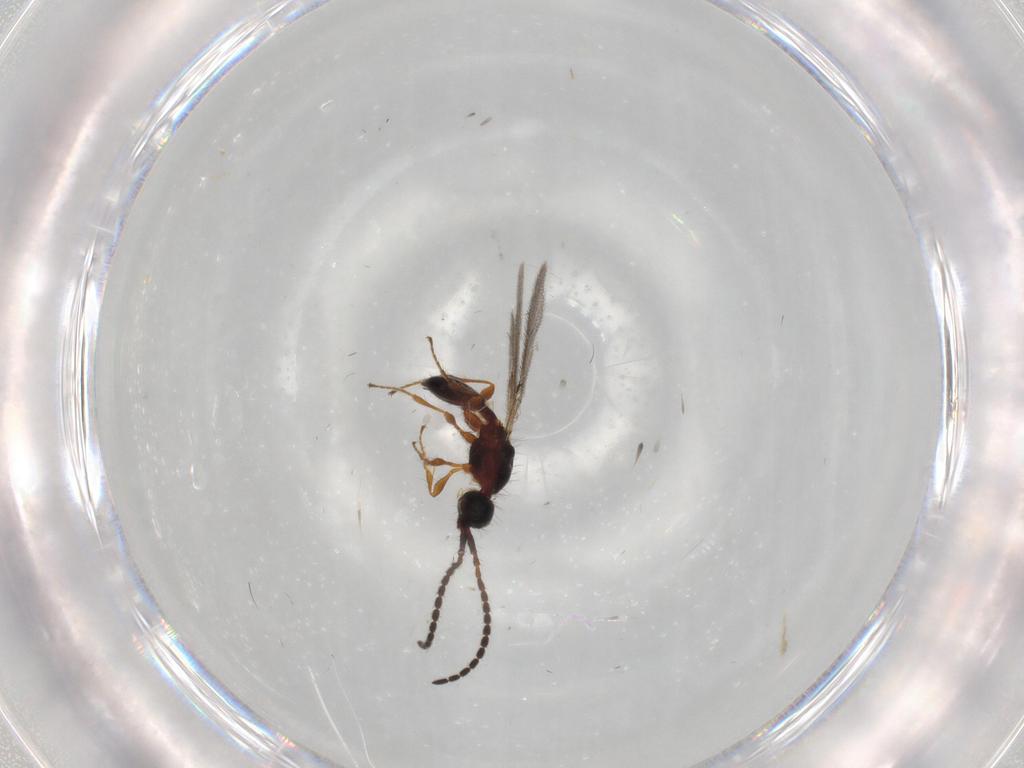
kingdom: Animalia
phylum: Arthropoda
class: Insecta
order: Hymenoptera
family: Diapriidae
